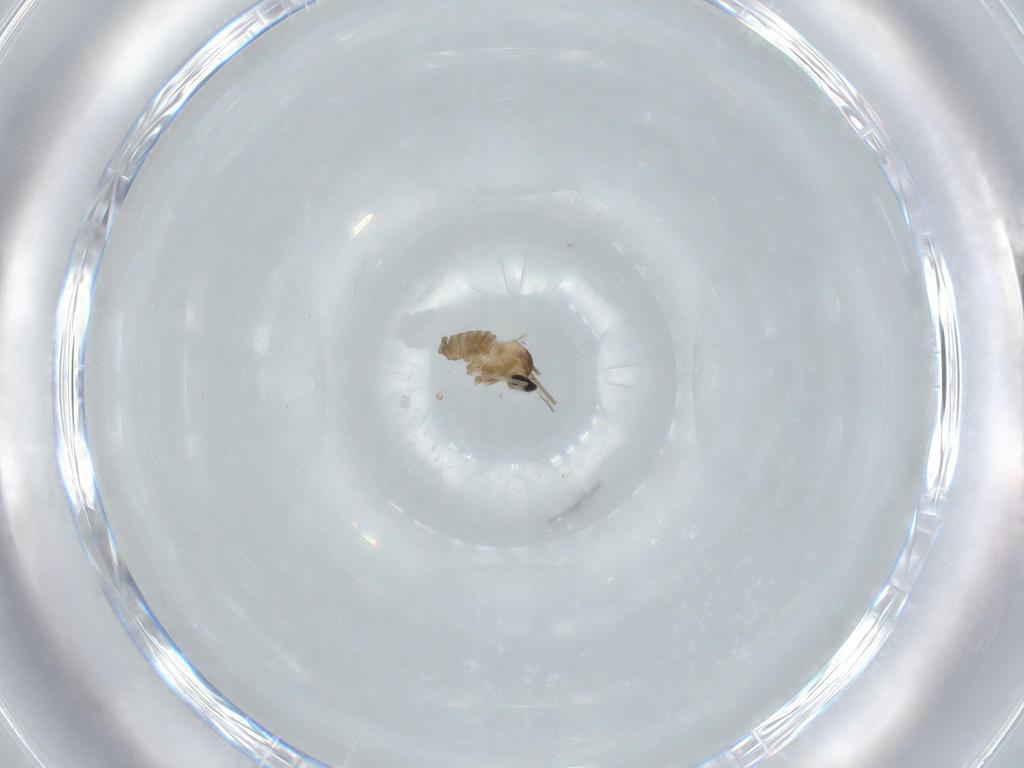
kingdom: Animalia
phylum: Arthropoda
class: Insecta
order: Diptera
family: Cecidomyiidae
